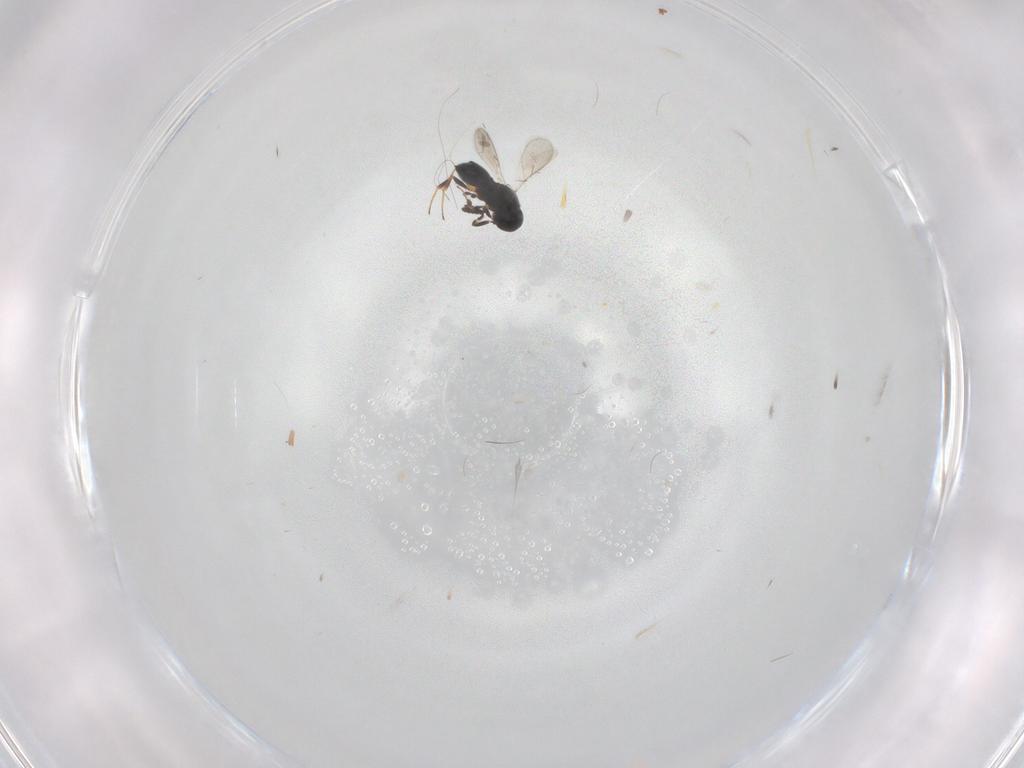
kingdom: Animalia
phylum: Arthropoda
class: Insecta
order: Hymenoptera
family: Scelionidae
